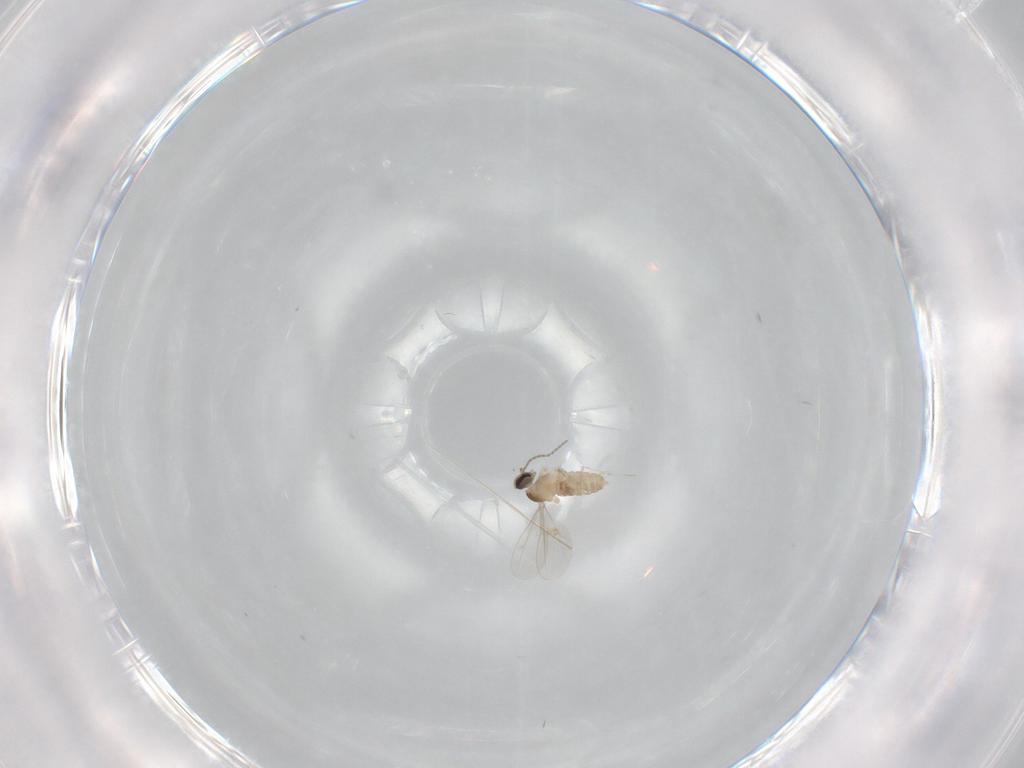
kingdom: Animalia
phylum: Arthropoda
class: Insecta
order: Diptera
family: Cecidomyiidae
